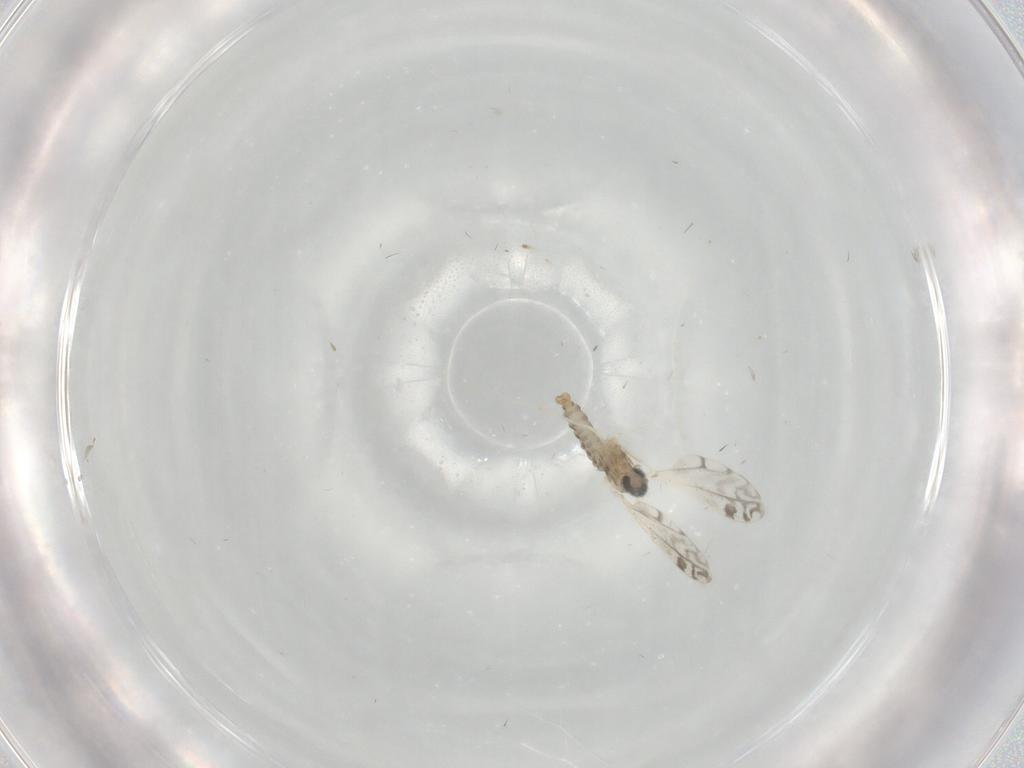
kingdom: Animalia
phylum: Arthropoda
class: Insecta
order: Diptera
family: Cecidomyiidae
